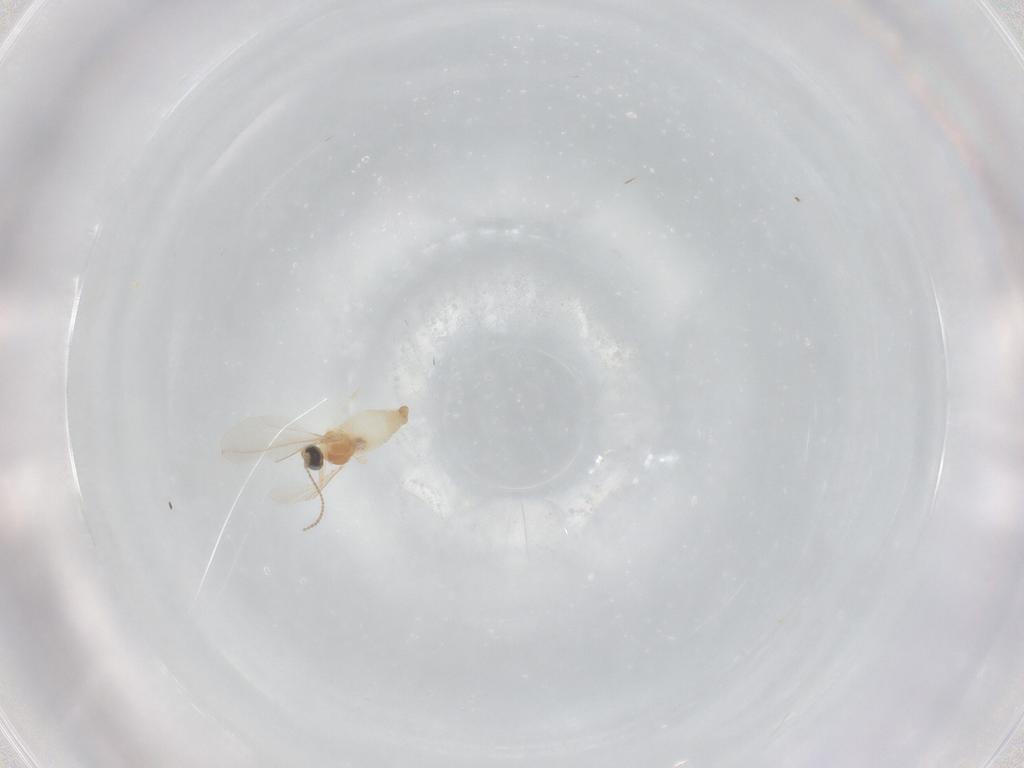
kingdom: Animalia
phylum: Arthropoda
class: Insecta
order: Diptera
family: Cecidomyiidae
